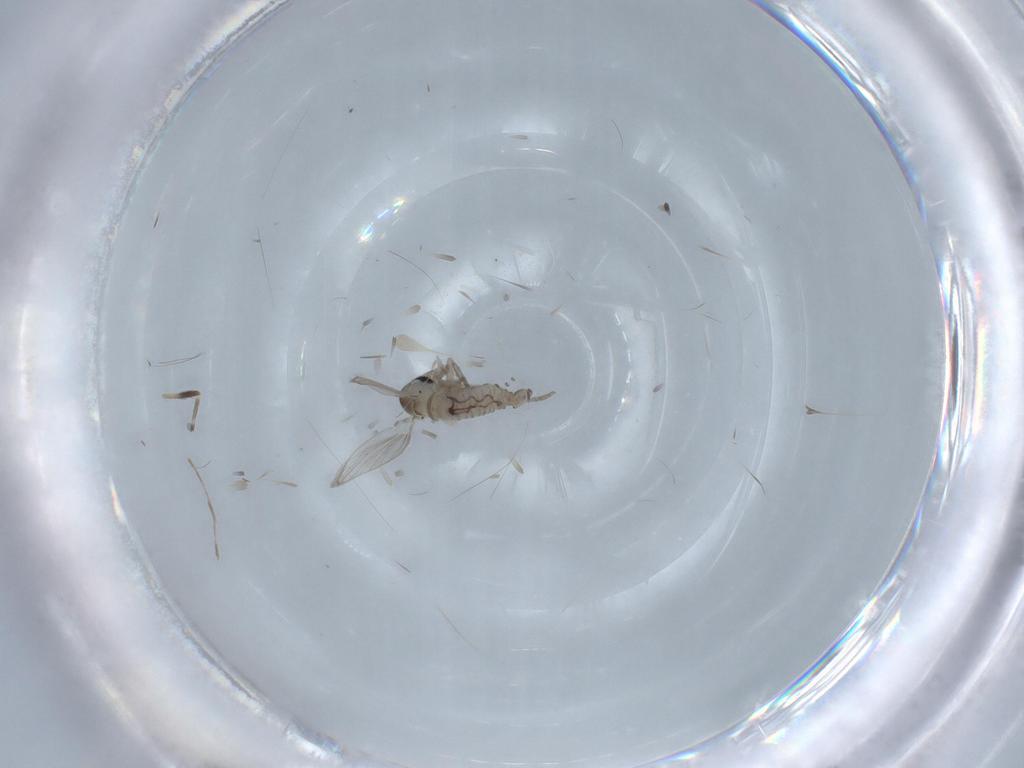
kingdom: Animalia
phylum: Arthropoda
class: Insecta
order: Diptera
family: Psychodidae
